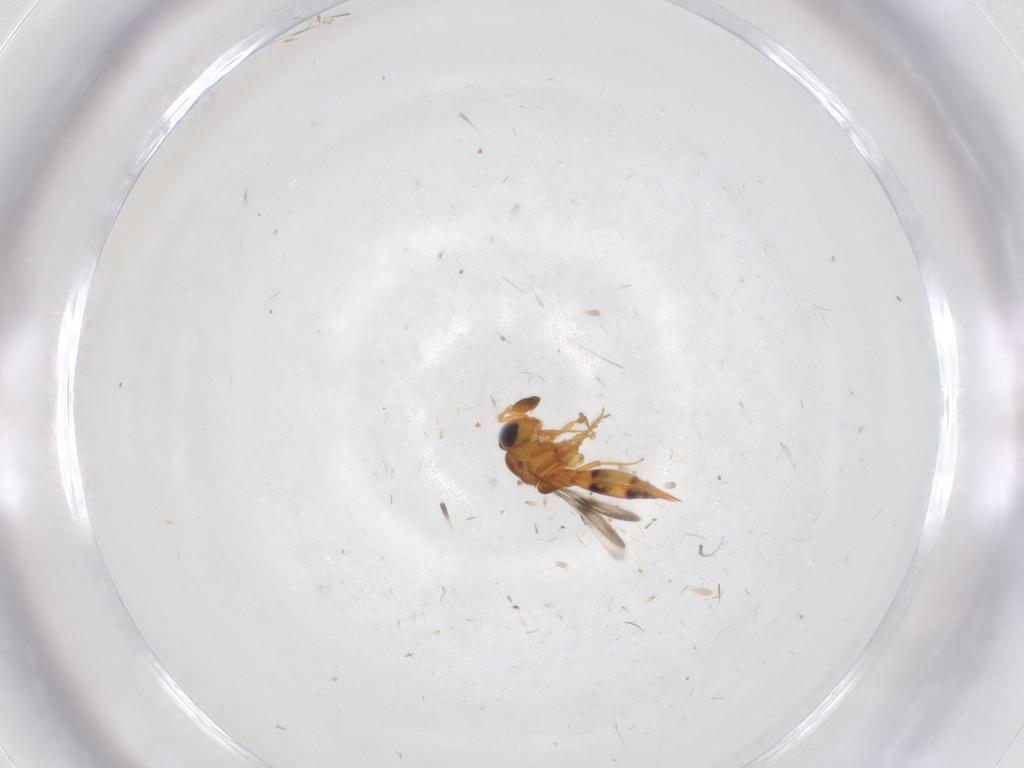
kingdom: Animalia
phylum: Arthropoda
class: Insecta
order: Hymenoptera
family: Scelionidae
